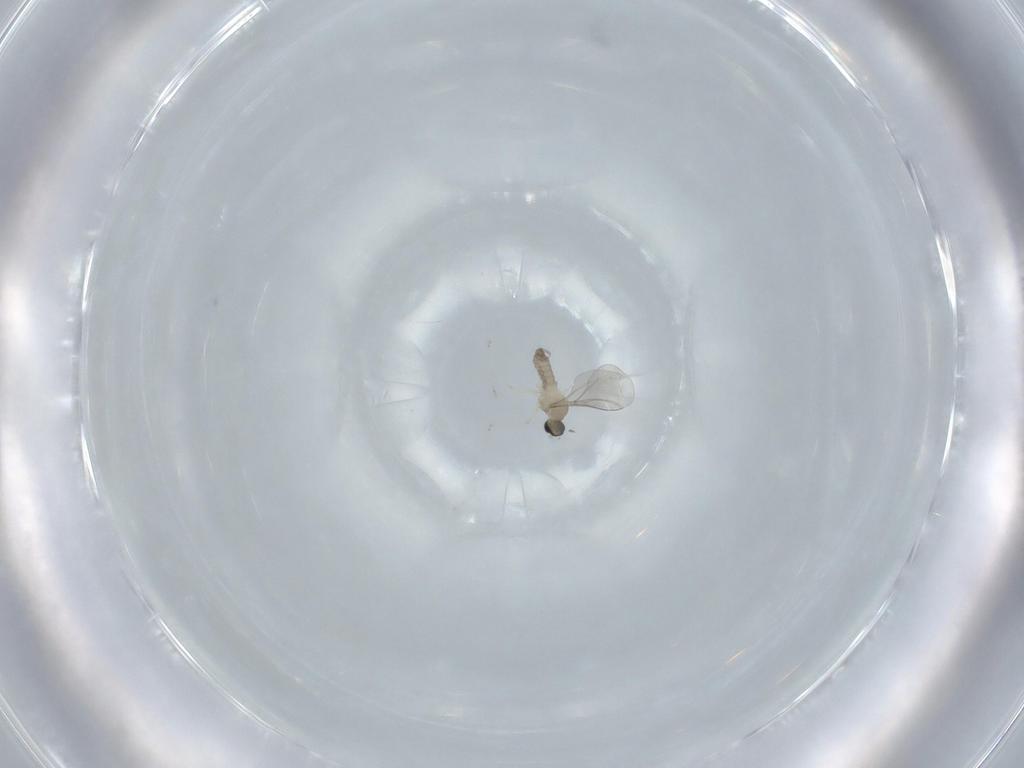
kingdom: Animalia
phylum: Arthropoda
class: Insecta
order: Diptera
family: Cecidomyiidae
